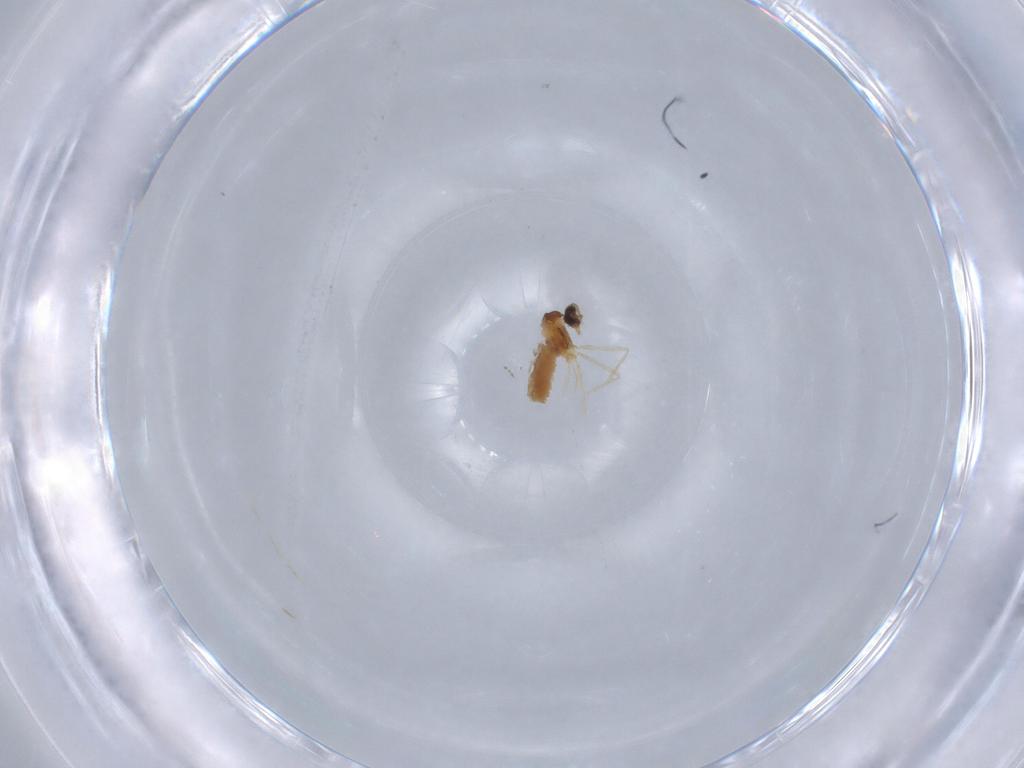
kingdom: Animalia
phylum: Arthropoda
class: Insecta
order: Diptera
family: Cecidomyiidae
